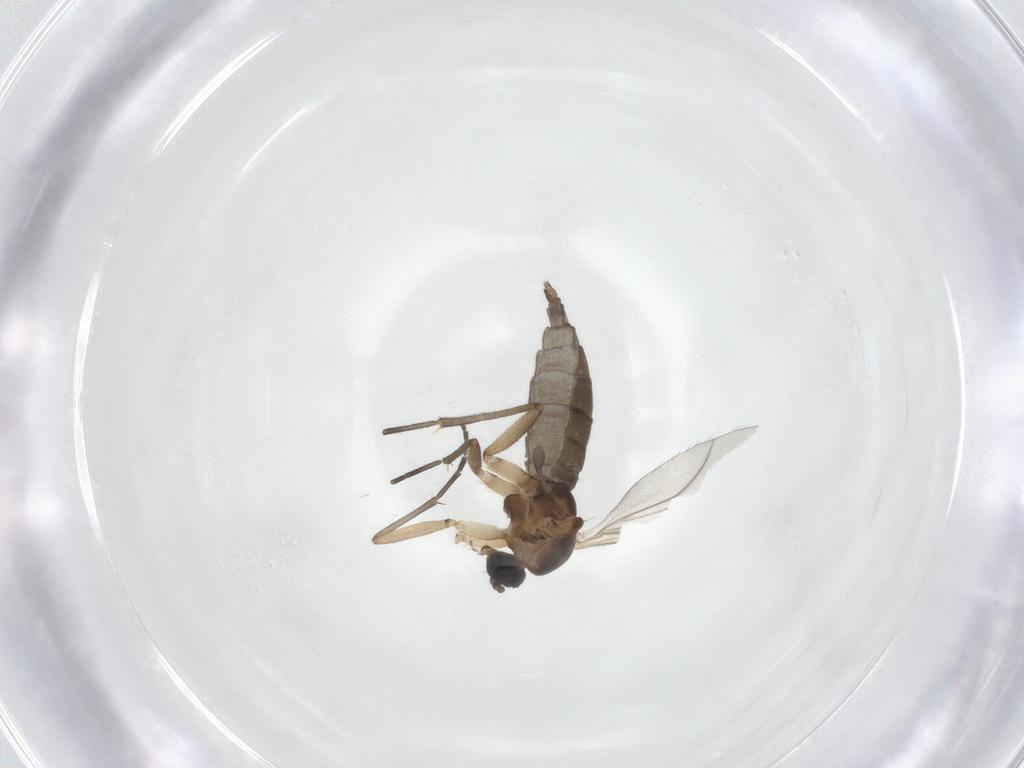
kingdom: Animalia
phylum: Arthropoda
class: Insecta
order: Diptera
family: Sciaridae
